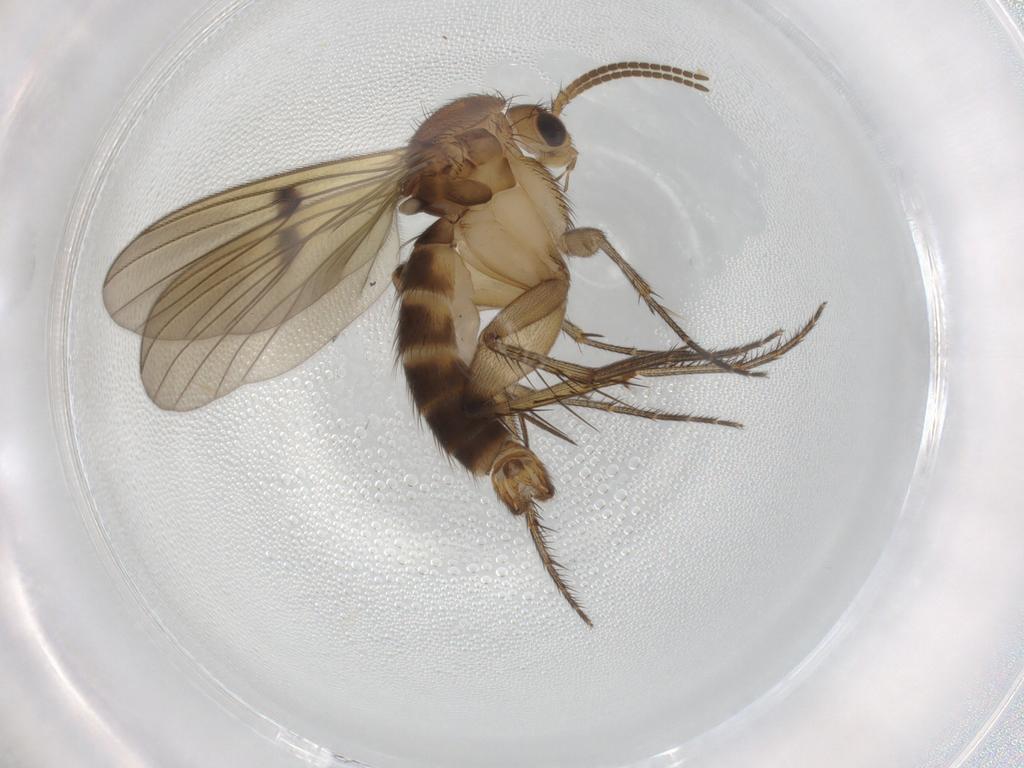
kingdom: Animalia
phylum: Arthropoda
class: Insecta
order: Diptera
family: Mycetophilidae
